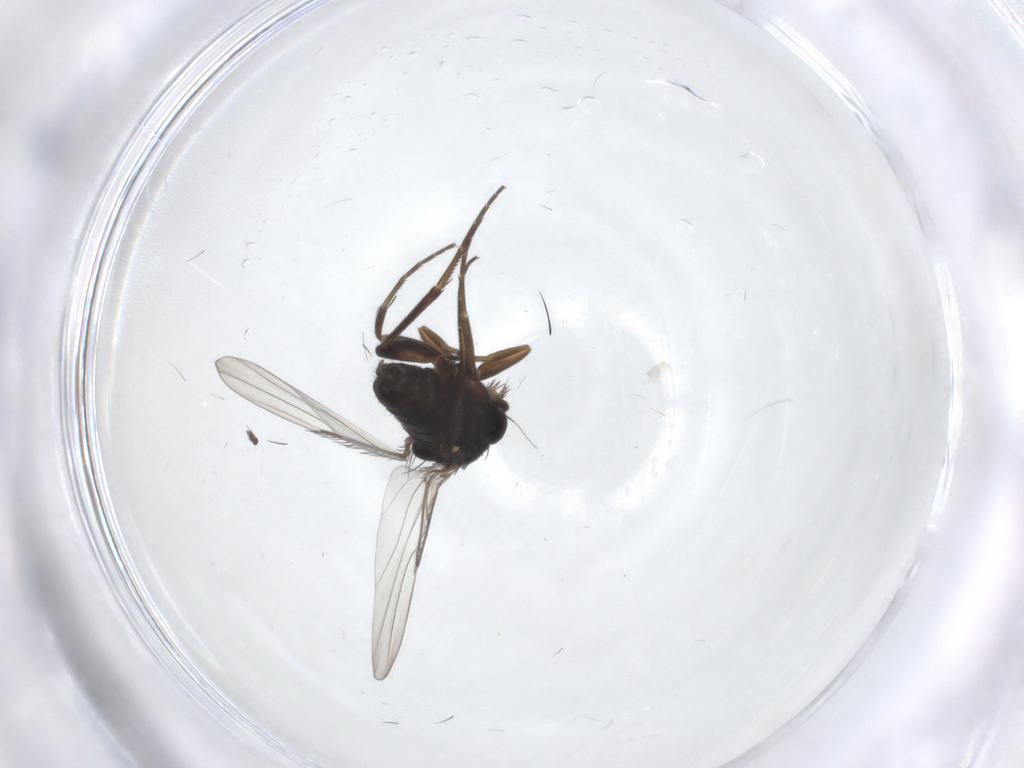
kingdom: Animalia
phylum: Arthropoda
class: Insecta
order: Diptera
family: Phoridae
